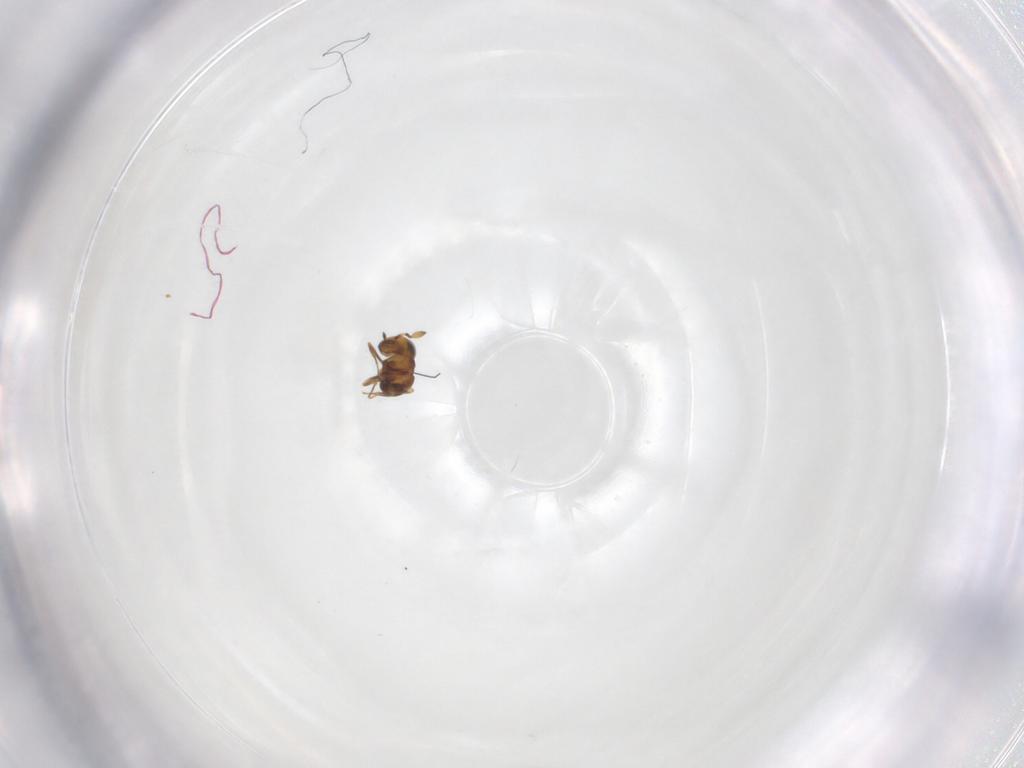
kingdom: Animalia
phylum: Arthropoda
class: Insecta
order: Hymenoptera
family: Scelionidae
